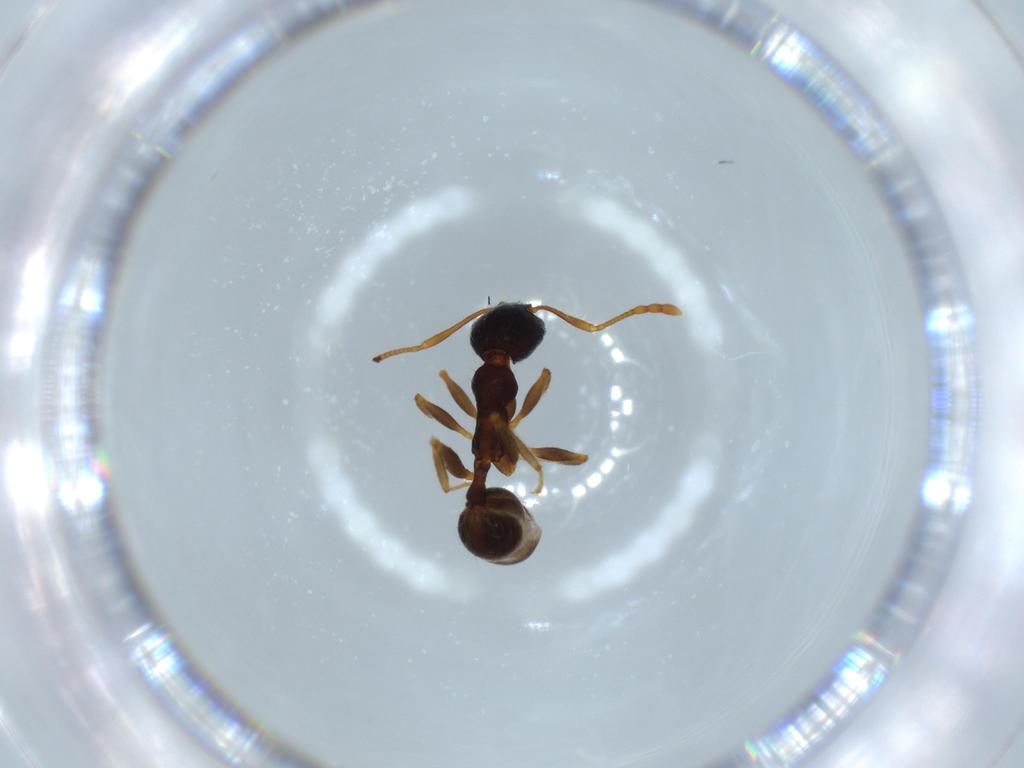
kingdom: Animalia
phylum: Arthropoda
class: Insecta
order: Hymenoptera
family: Formicidae
